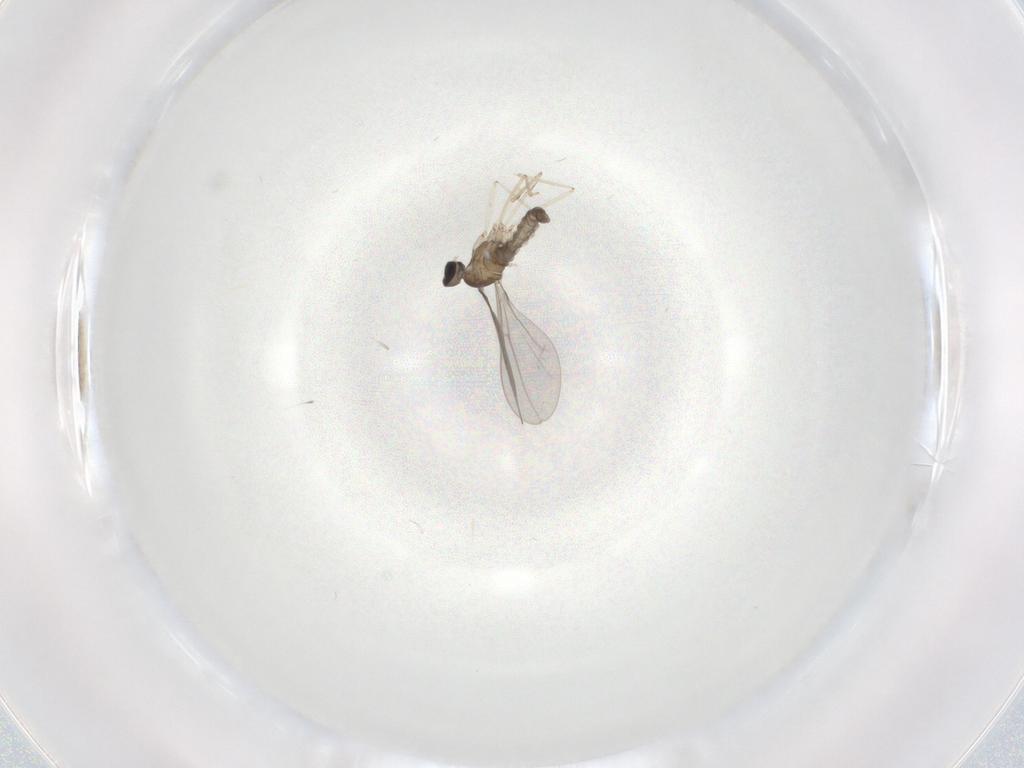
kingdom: Animalia
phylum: Arthropoda
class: Insecta
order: Diptera
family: Cecidomyiidae
